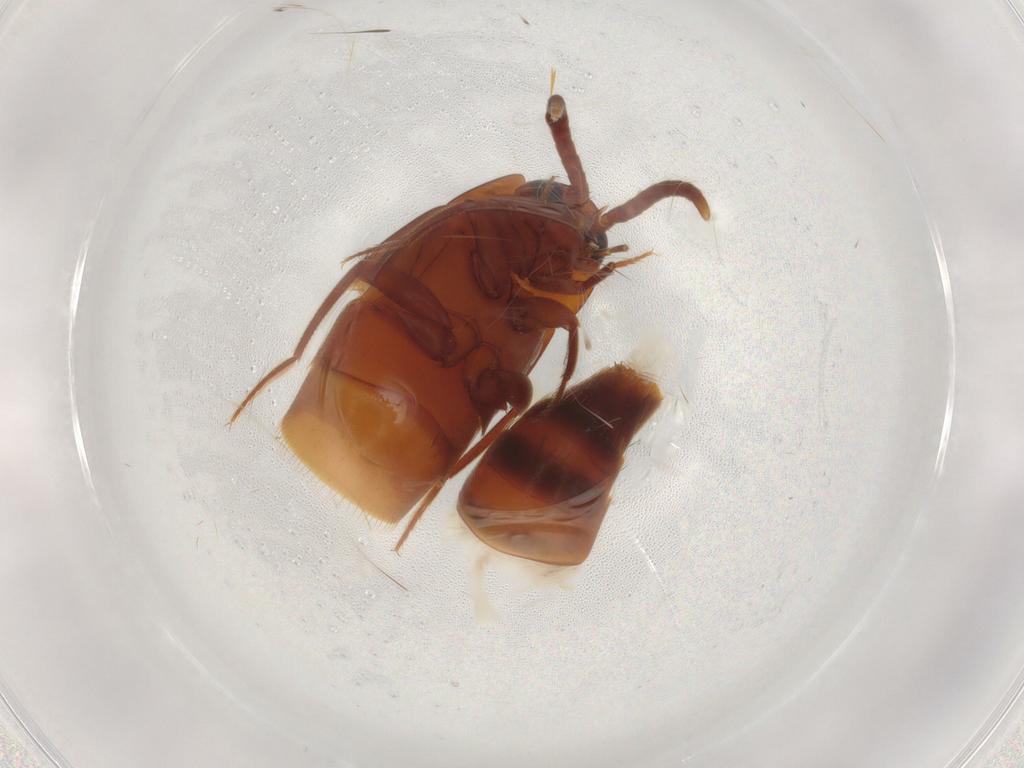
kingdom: Animalia
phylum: Arthropoda
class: Insecta
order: Coleoptera
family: Staphylinidae
